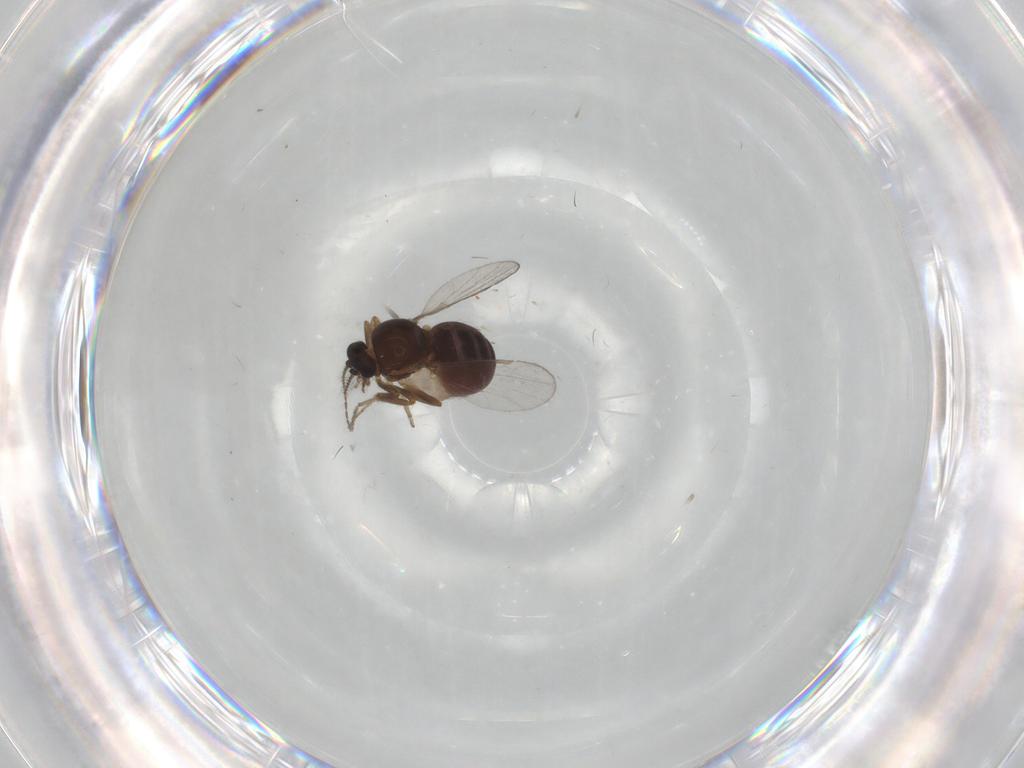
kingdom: Animalia
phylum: Arthropoda
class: Insecta
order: Diptera
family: Ceratopogonidae
